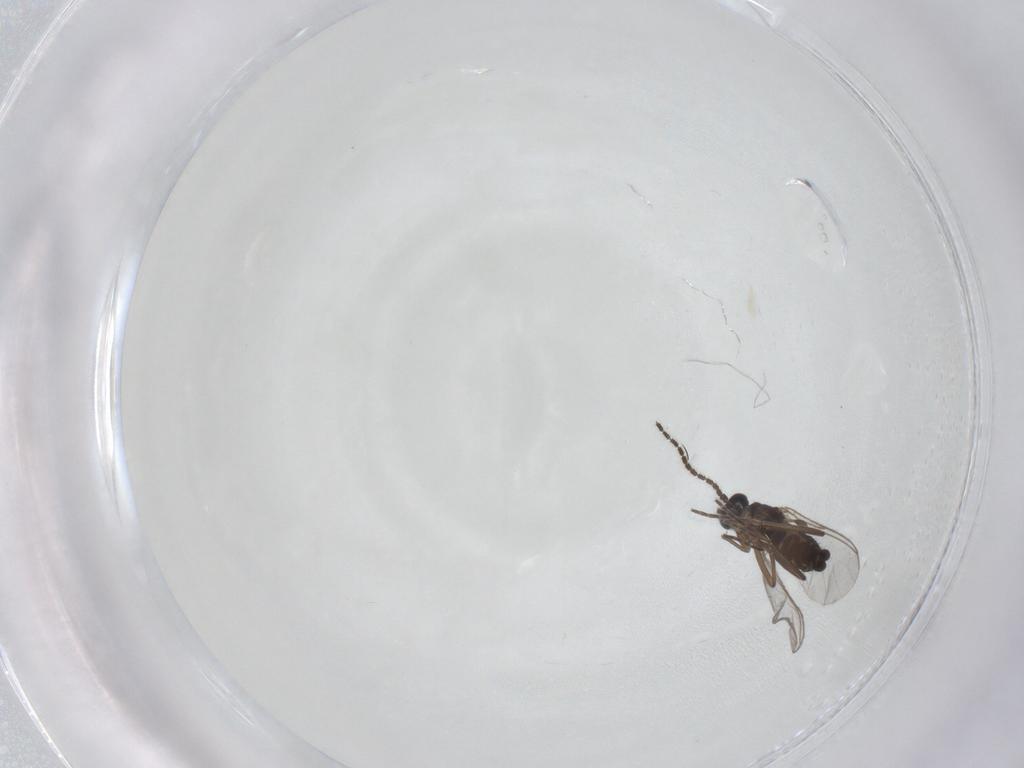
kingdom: Animalia
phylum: Arthropoda
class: Insecta
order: Diptera
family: Sciaridae
